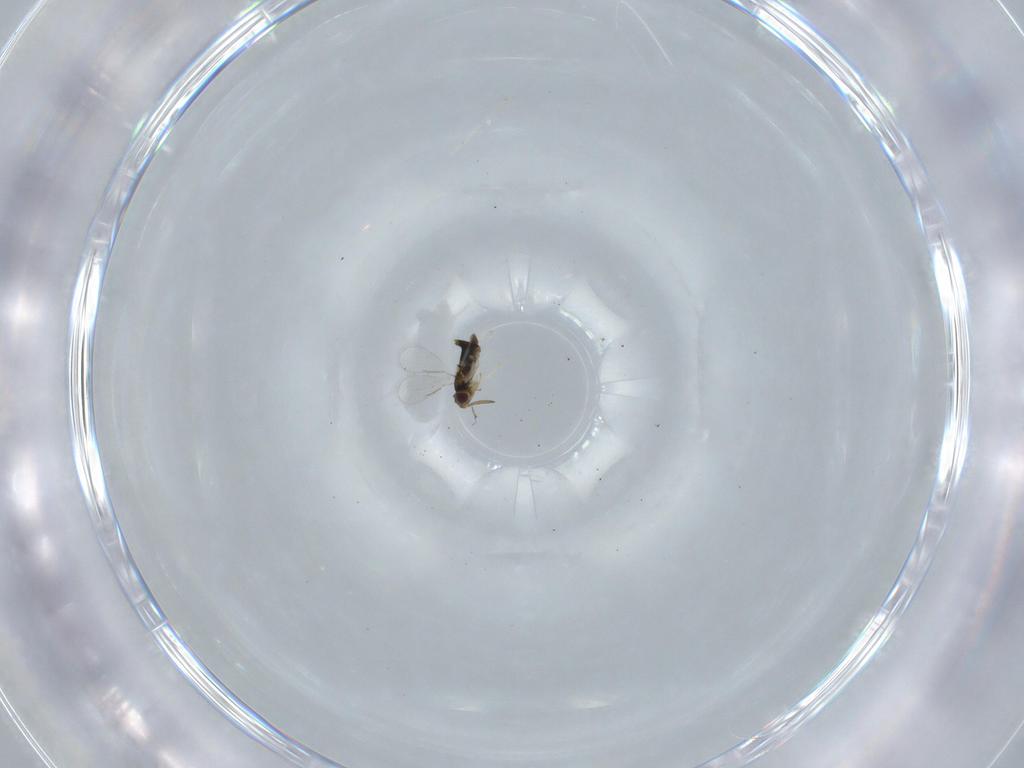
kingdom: Animalia
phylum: Arthropoda
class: Insecta
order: Hymenoptera
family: Aphelinidae
